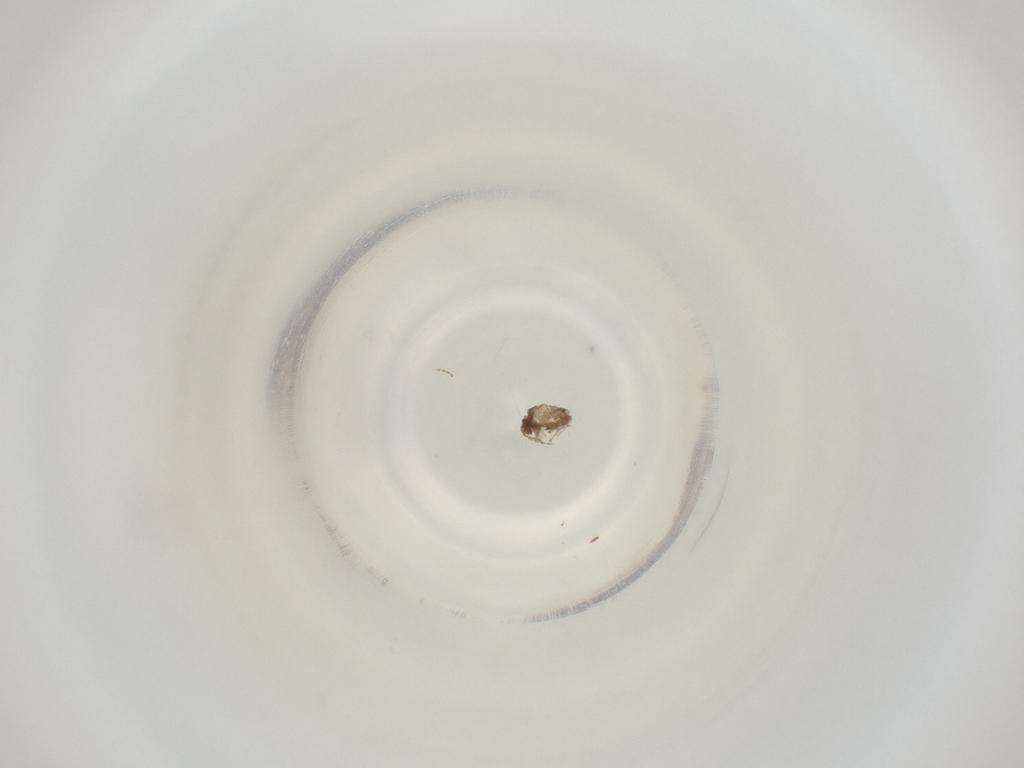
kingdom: Animalia
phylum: Arthropoda
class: Insecta
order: Diptera
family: Cecidomyiidae
